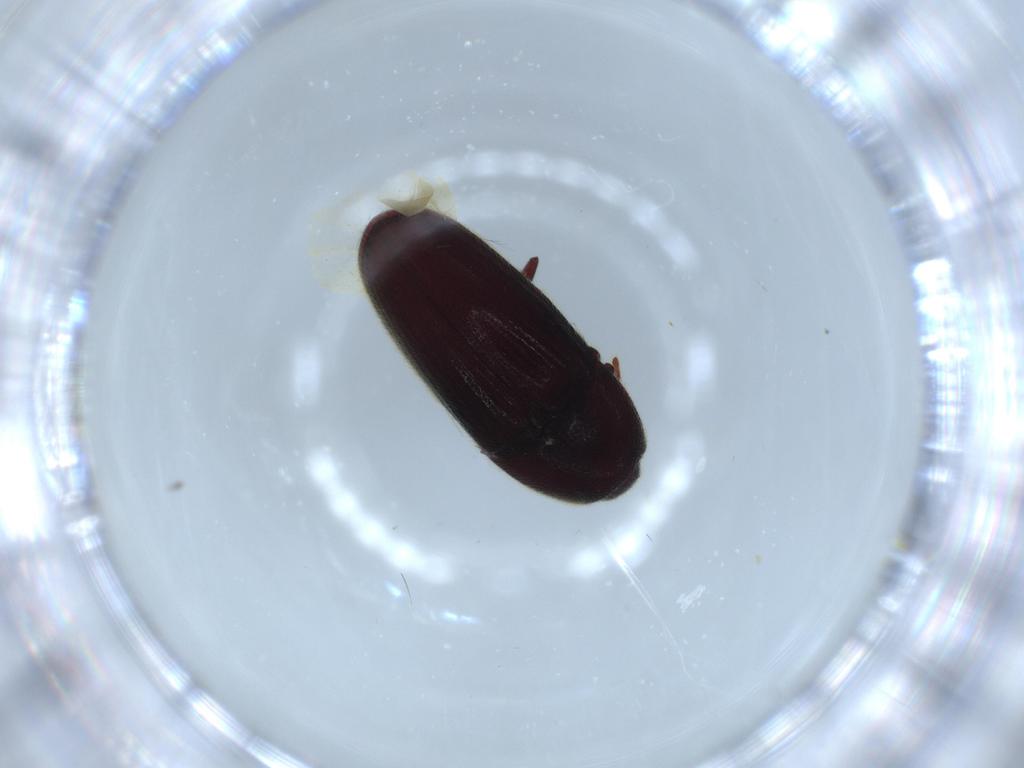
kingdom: Animalia
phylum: Arthropoda
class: Insecta
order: Coleoptera
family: Throscidae
